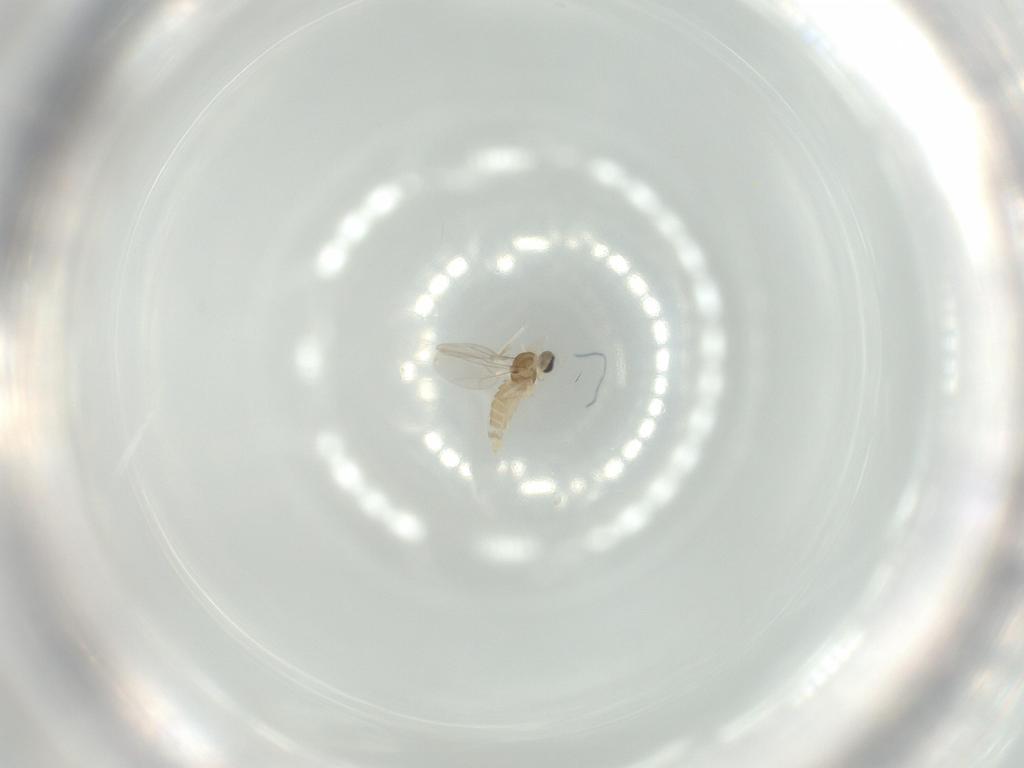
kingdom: Animalia
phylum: Arthropoda
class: Insecta
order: Diptera
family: Cecidomyiidae
